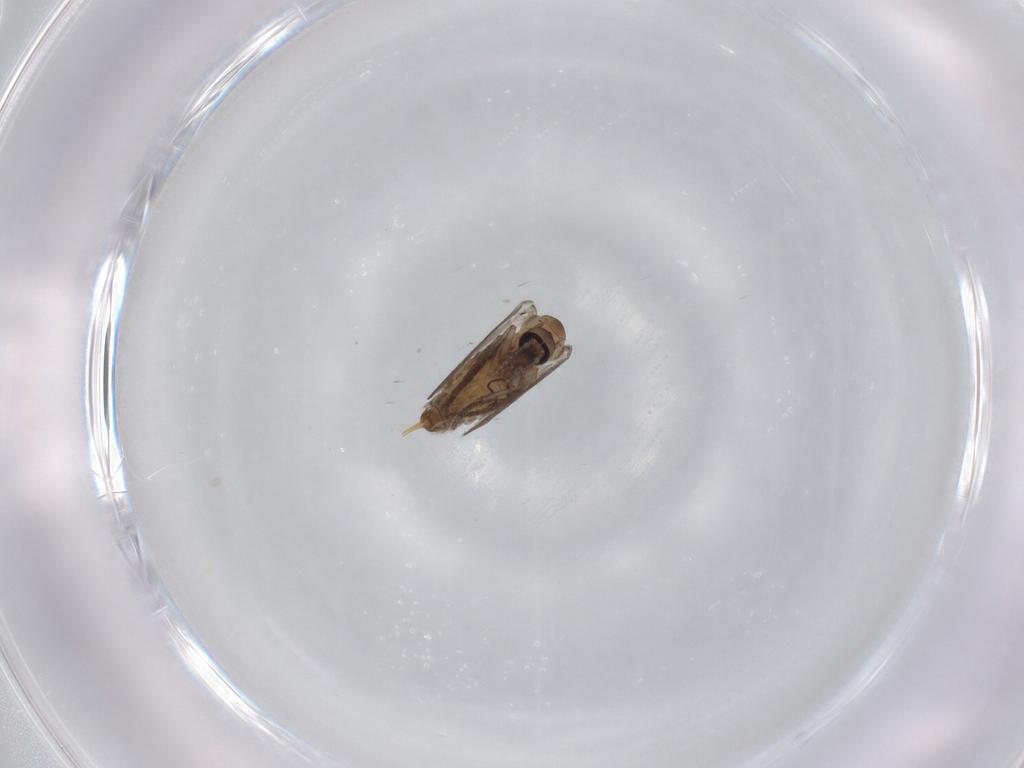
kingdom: Animalia
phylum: Arthropoda
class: Insecta
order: Diptera
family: Psychodidae
